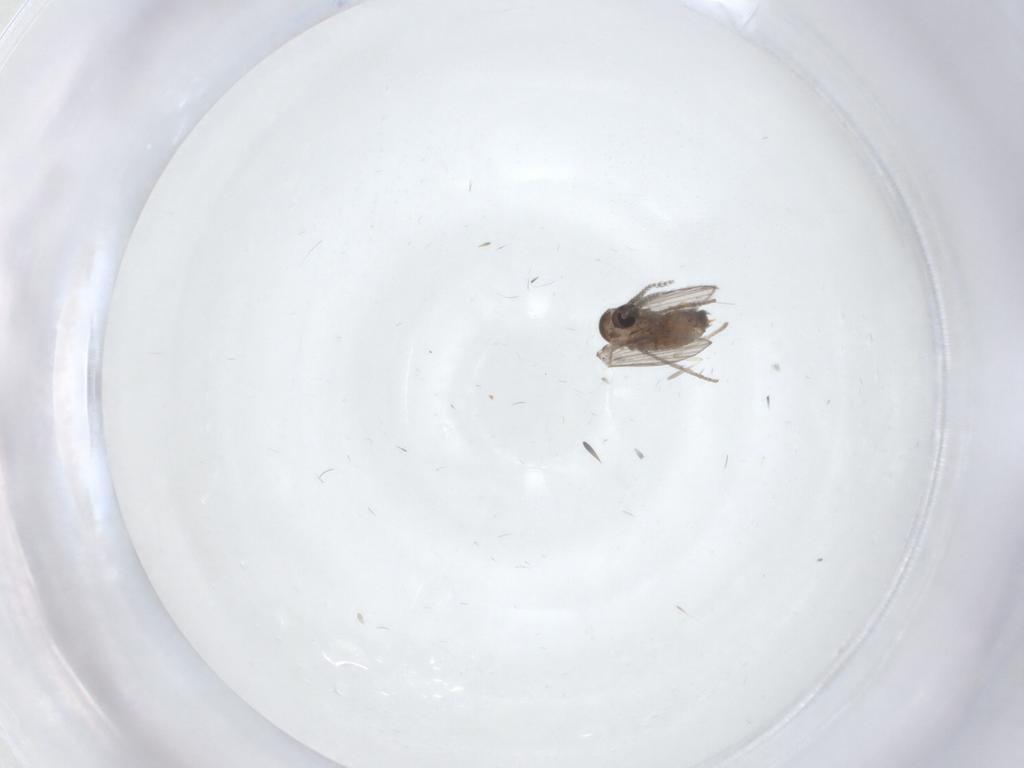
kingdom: Animalia
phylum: Arthropoda
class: Insecta
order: Diptera
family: Psychodidae
